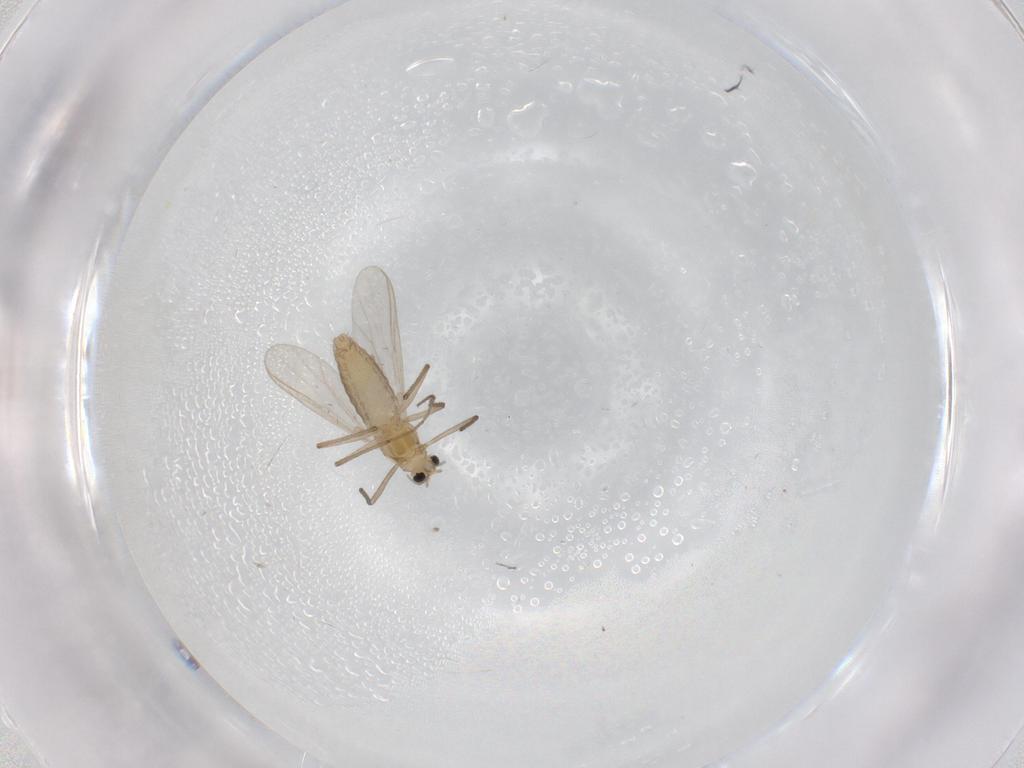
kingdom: Animalia
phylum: Arthropoda
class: Insecta
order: Diptera
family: Chironomidae
